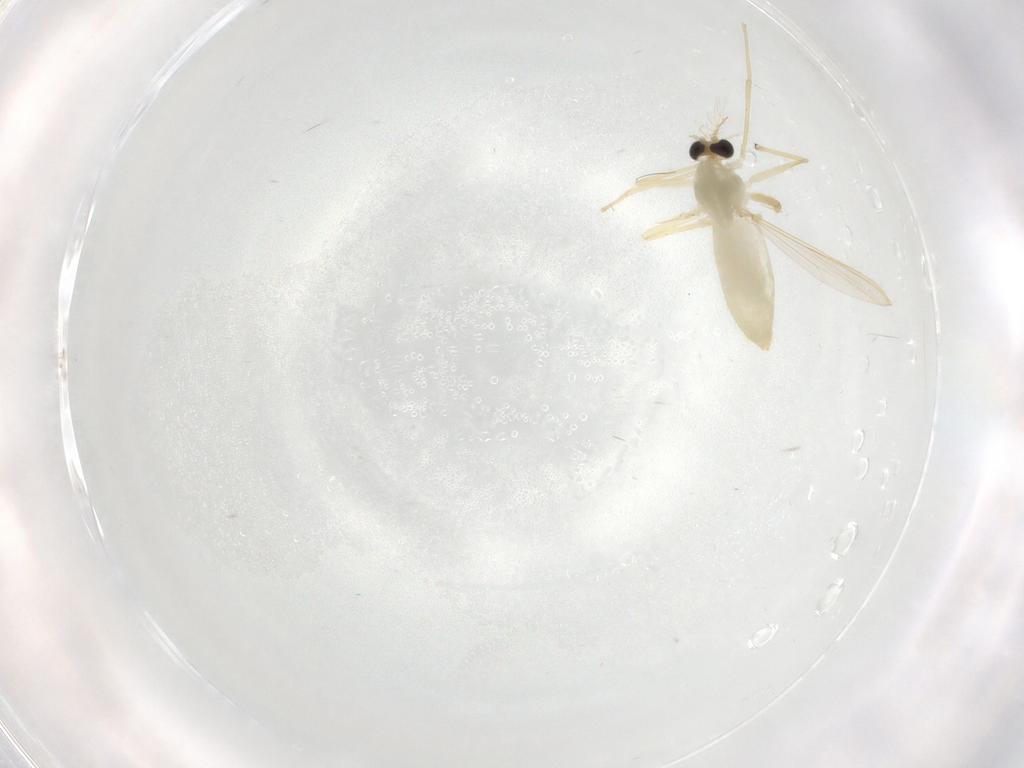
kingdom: Animalia
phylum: Arthropoda
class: Insecta
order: Diptera
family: Chironomidae
